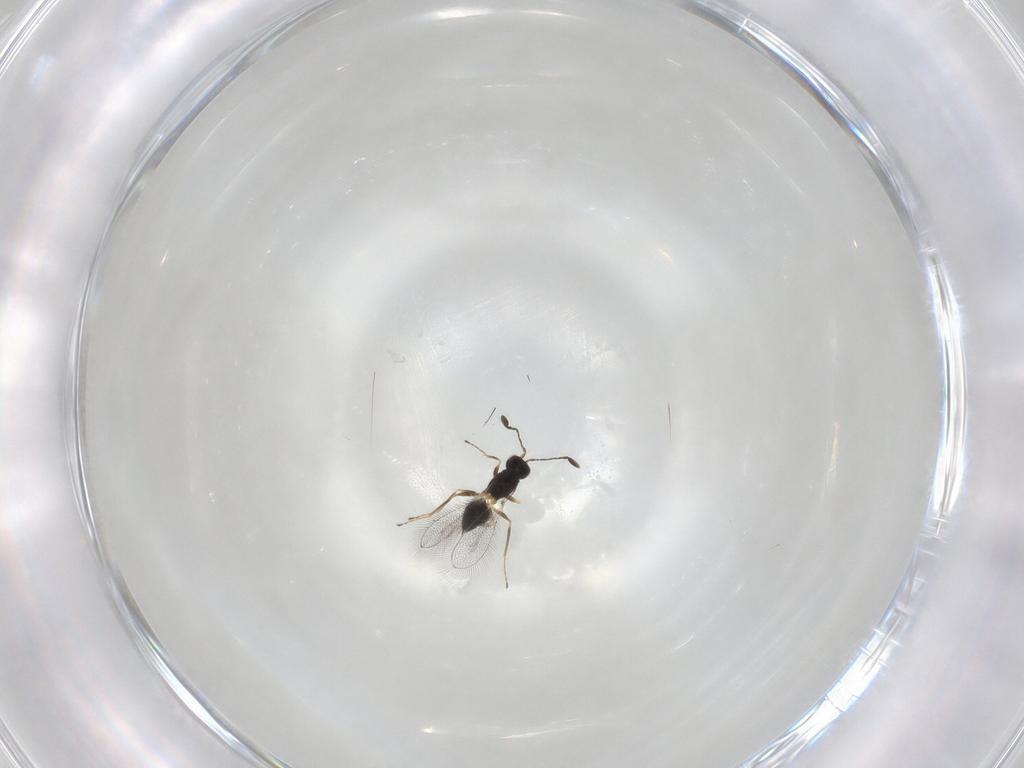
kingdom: Animalia
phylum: Arthropoda
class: Insecta
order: Hymenoptera
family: Mymaridae
